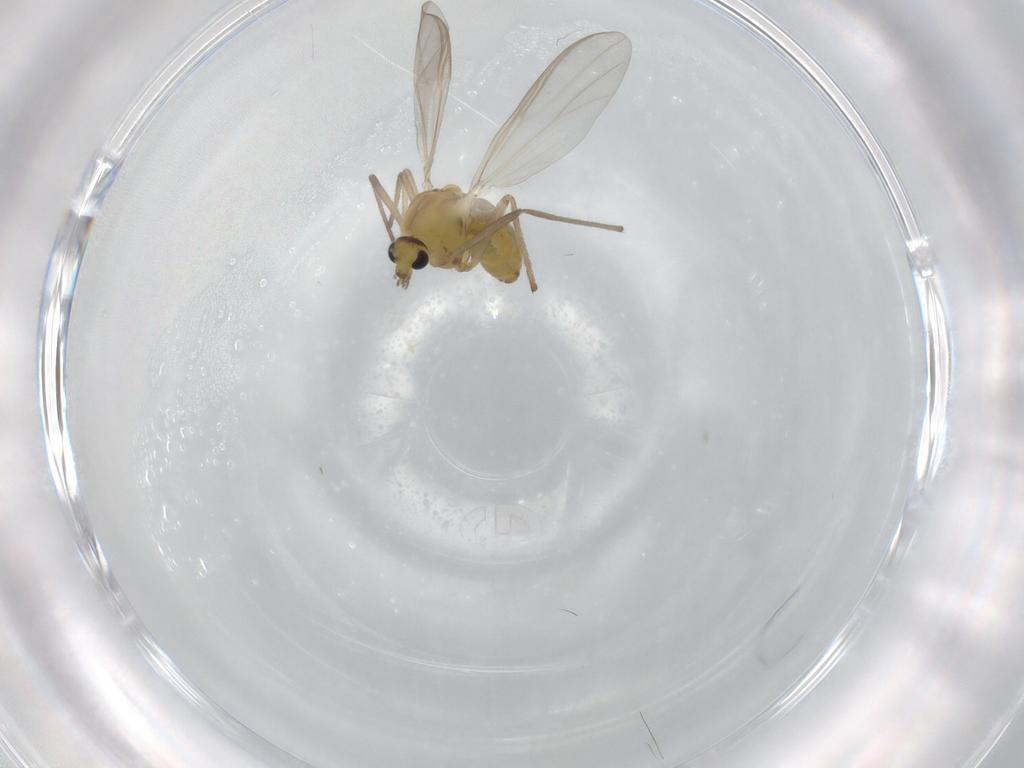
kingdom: Animalia
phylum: Arthropoda
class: Insecta
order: Diptera
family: Chironomidae
